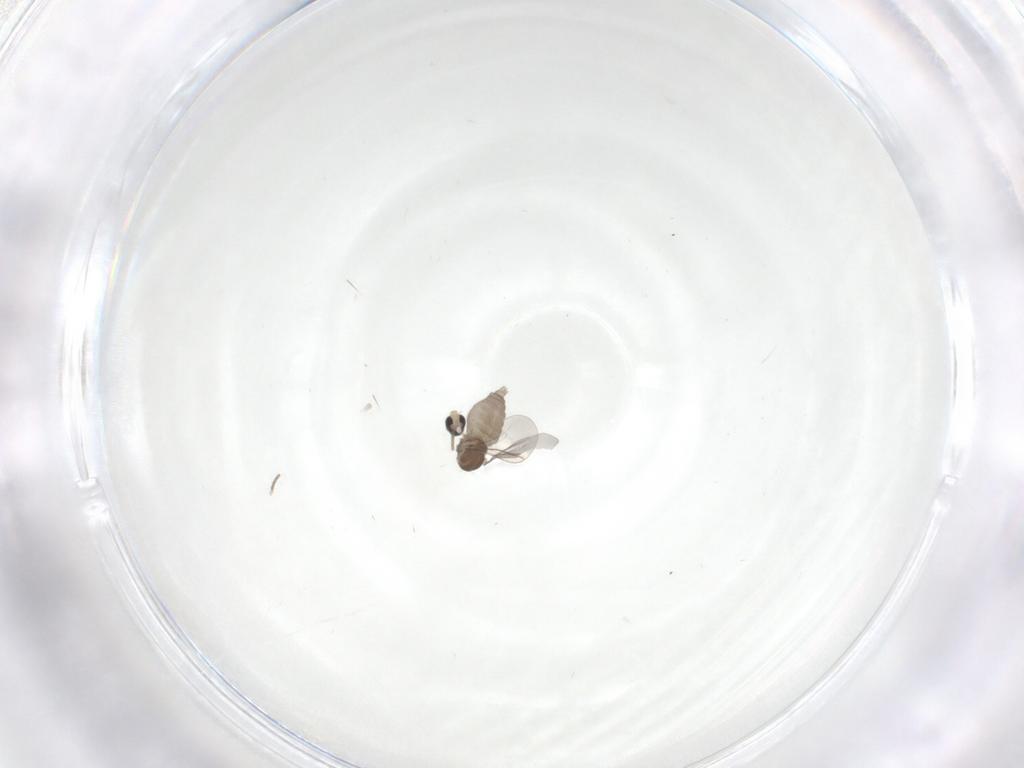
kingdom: Animalia
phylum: Arthropoda
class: Insecta
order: Diptera
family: Cecidomyiidae
